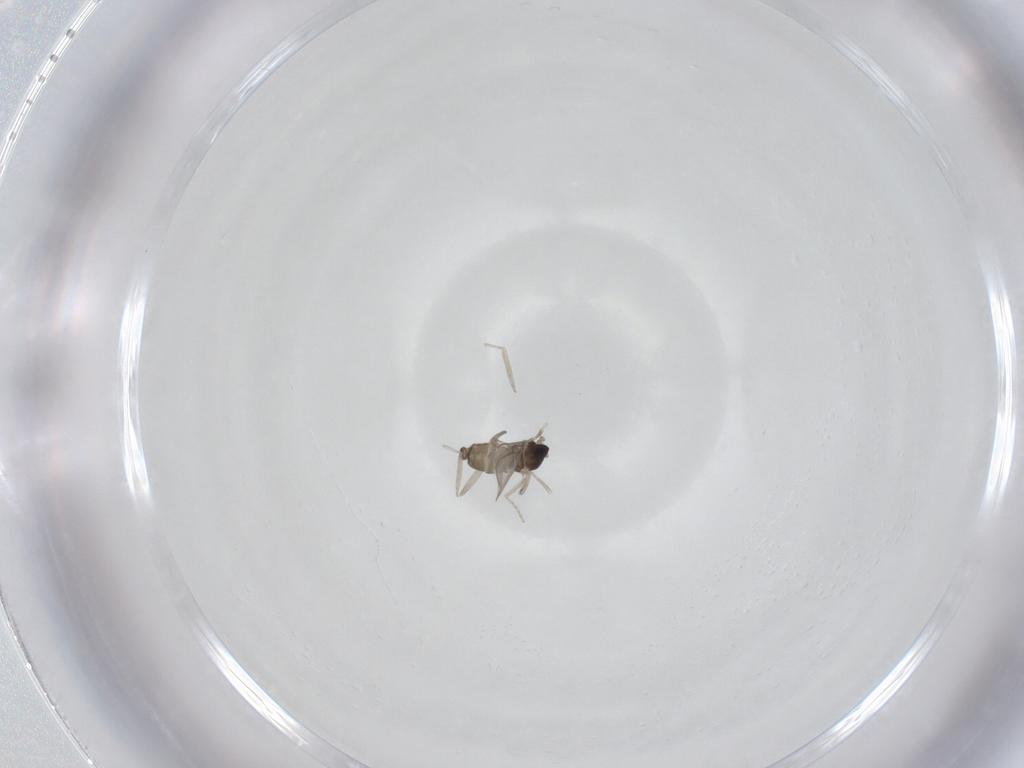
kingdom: Animalia
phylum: Arthropoda
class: Insecta
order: Diptera
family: Cecidomyiidae
